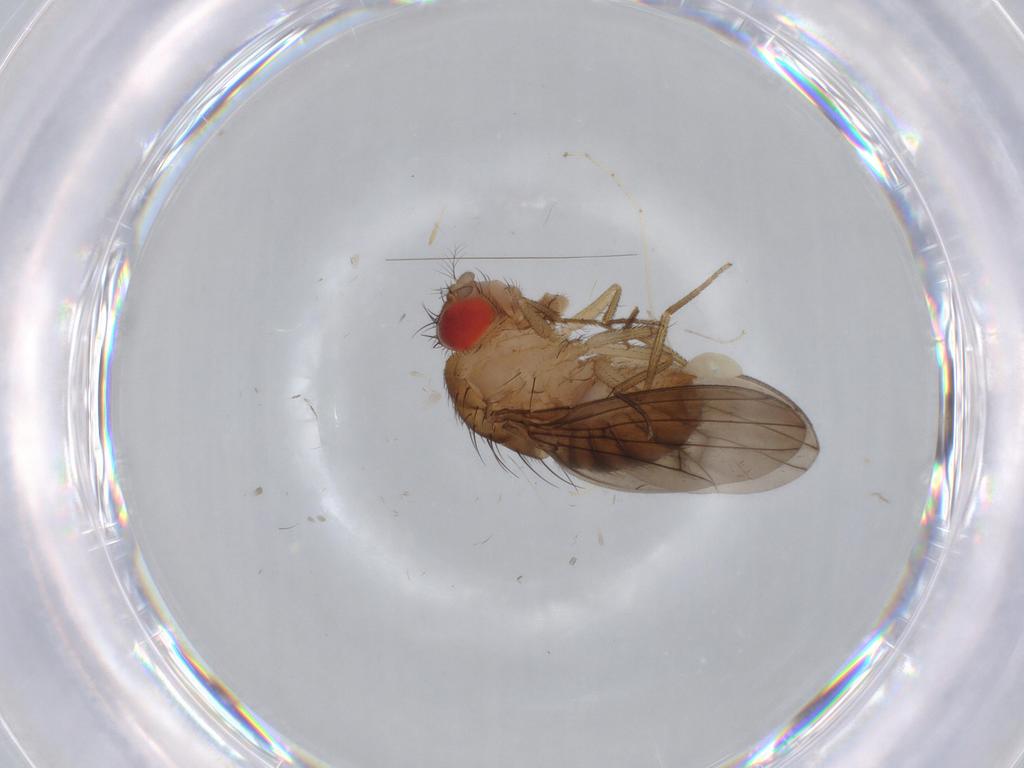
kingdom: Animalia
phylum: Arthropoda
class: Insecta
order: Diptera
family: Drosophilidae
